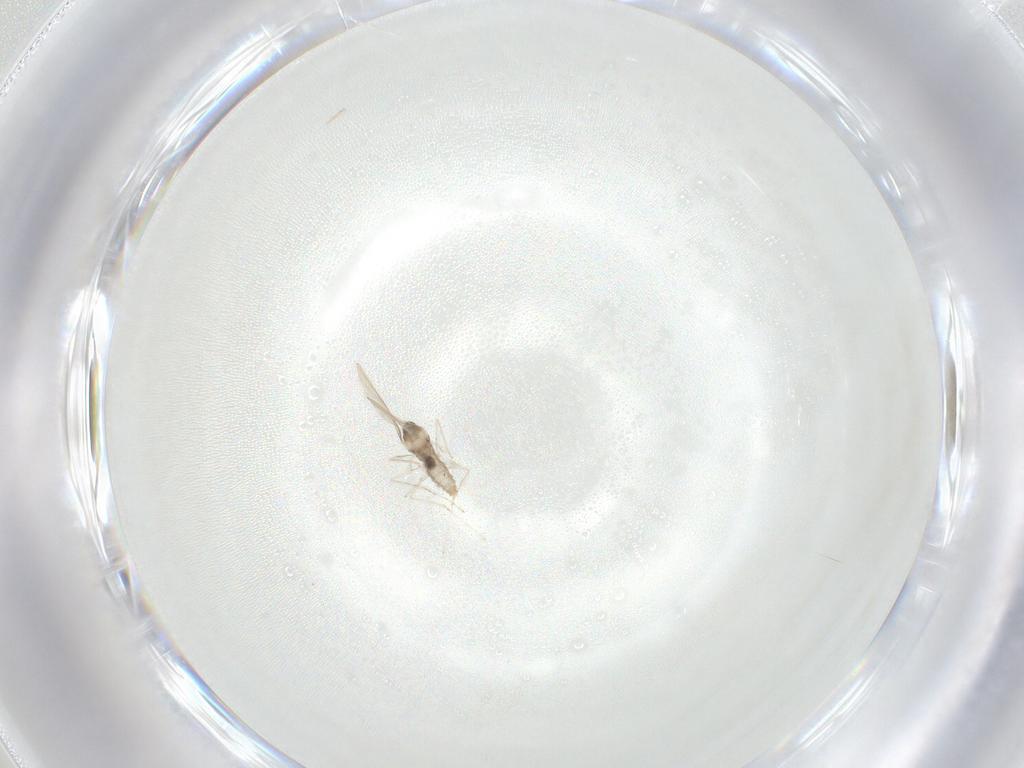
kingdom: Animalia
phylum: Arthropoda
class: Insecta
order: Diptera
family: Cecidomyiidae
